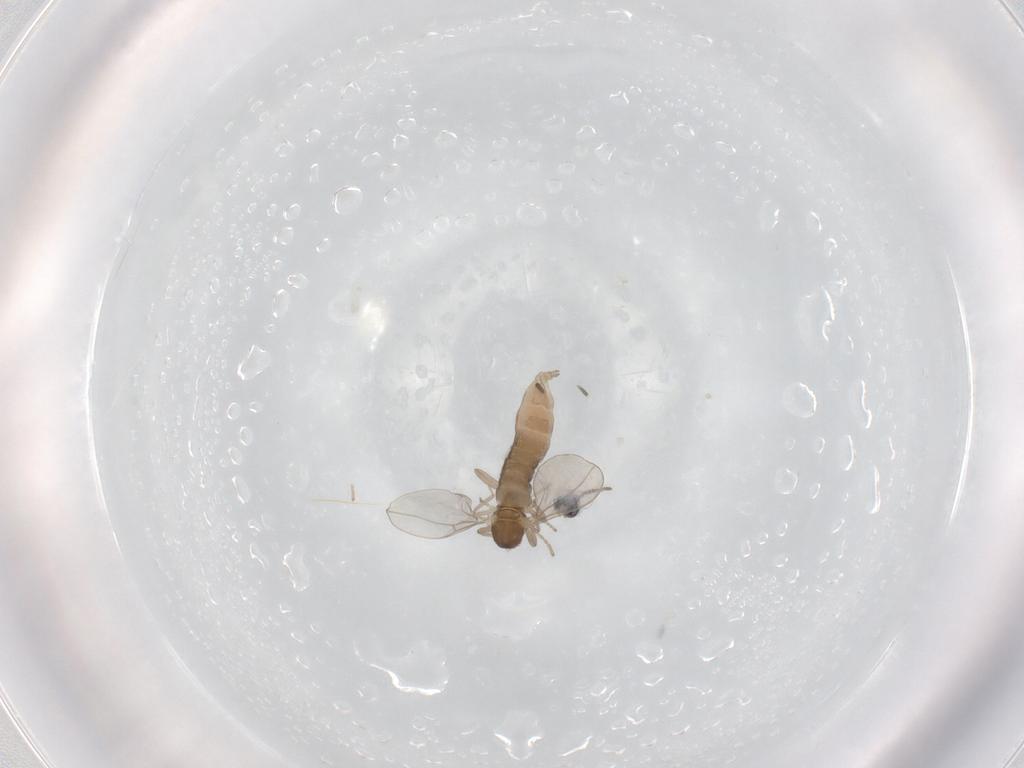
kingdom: Animalia
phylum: Arthropoda
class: Insecta
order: Diptera
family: Cecidomyiidae
